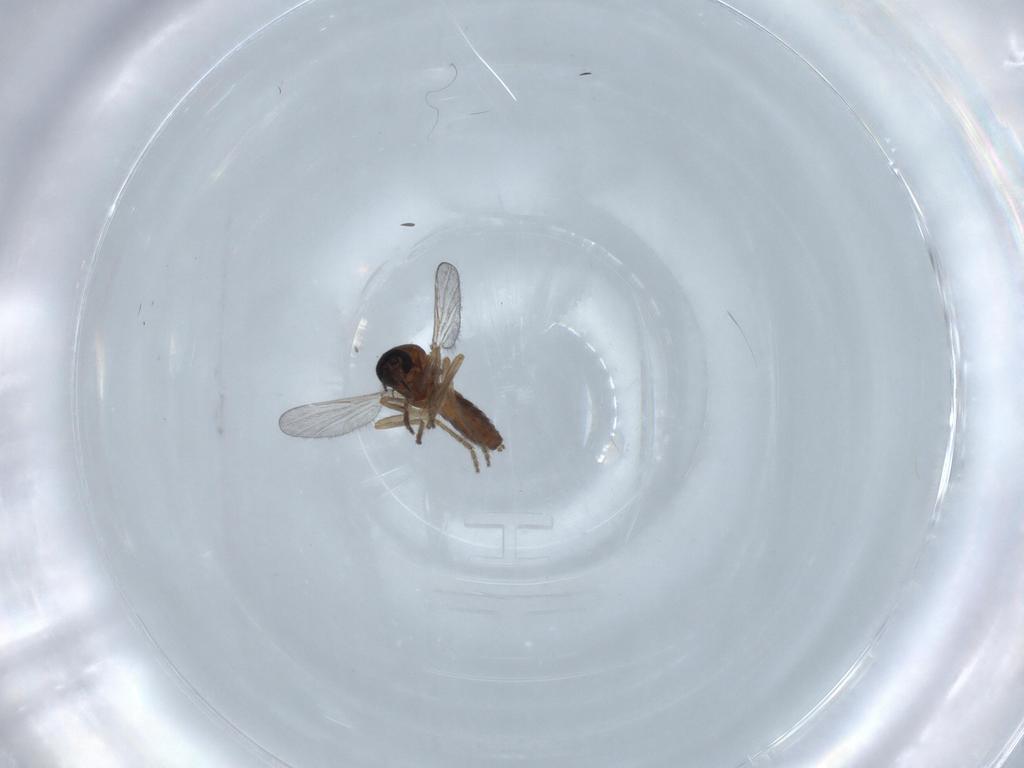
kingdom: Animalia
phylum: Arthropoda
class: Insecta
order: Diptera
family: Ceratopogonidae
